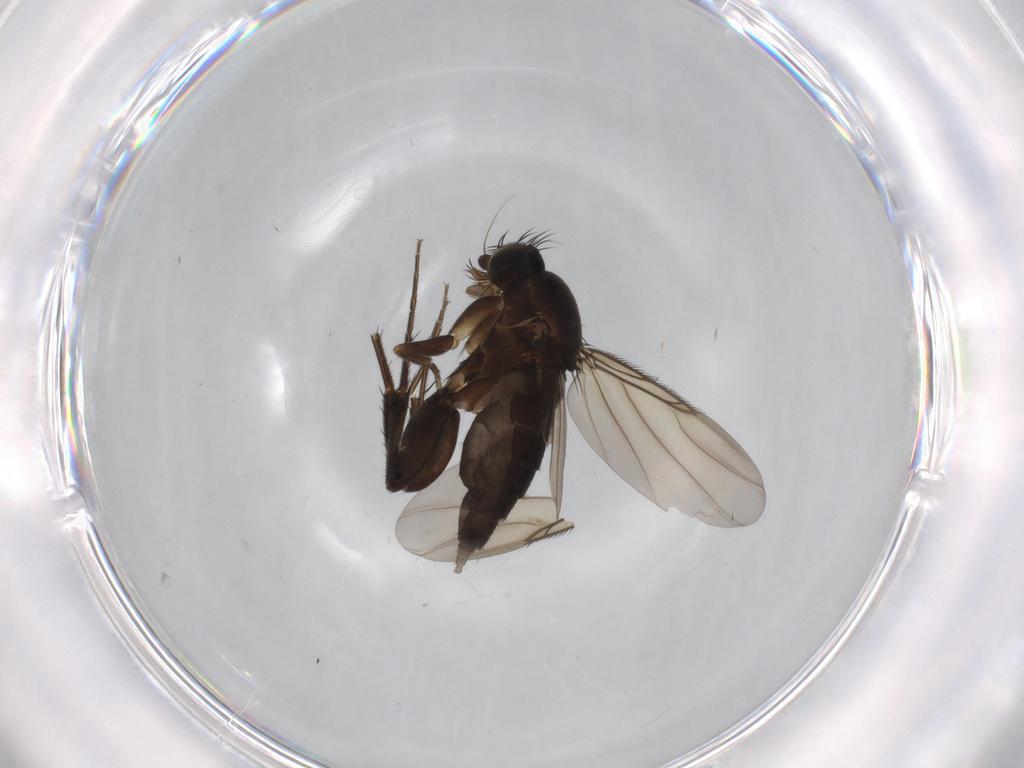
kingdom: Animalia
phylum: Arthropoda
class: Insecta
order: Diptera
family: Phoridae
